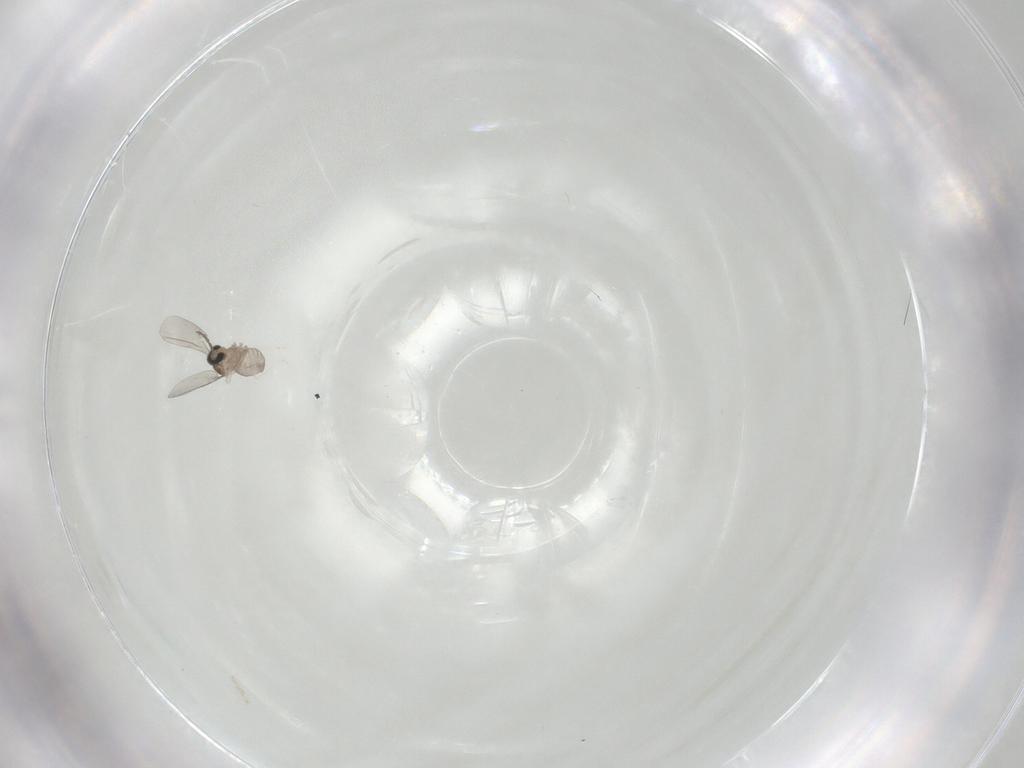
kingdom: Animalia
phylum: Arthropoda
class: Insecta
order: Diptera
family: Cecidomyiidae
